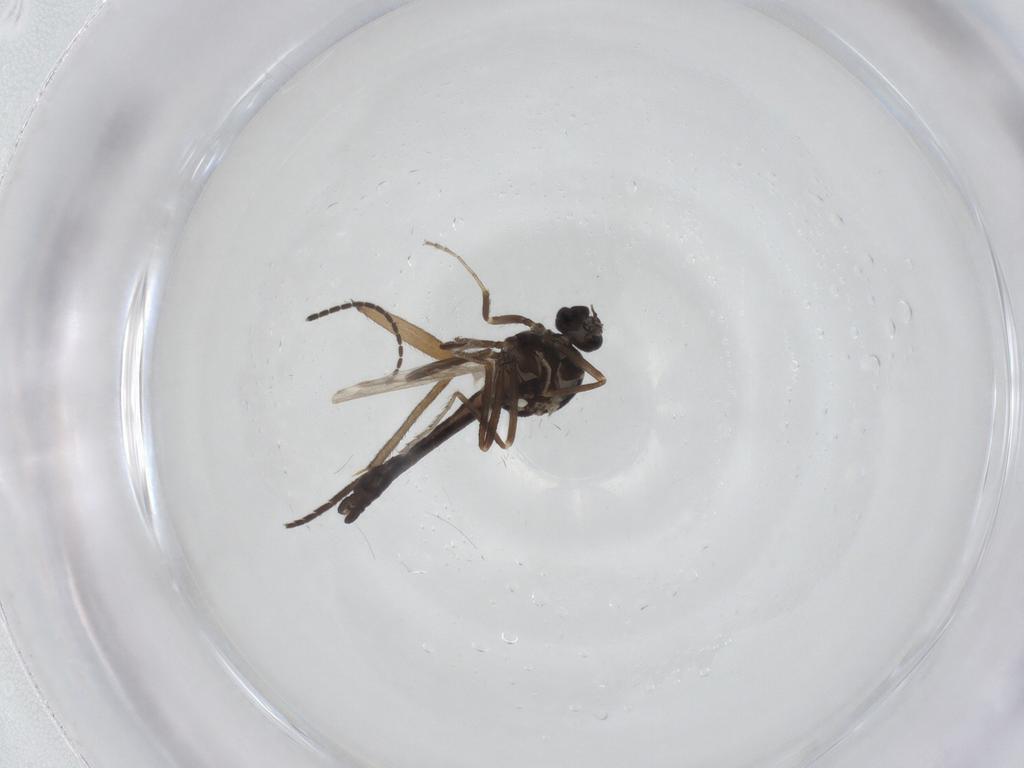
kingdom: Animalia
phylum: Arthropoda
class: Insecta
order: Diptera
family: Ceratopogonidae
